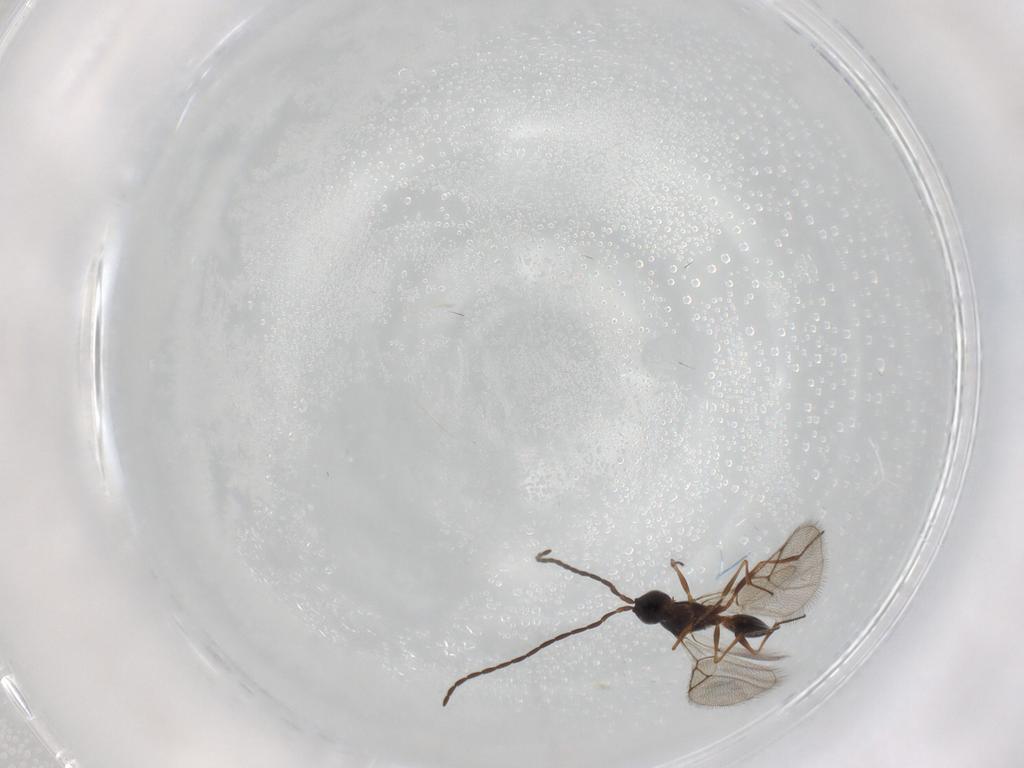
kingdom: Animalia
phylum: Arthropoda
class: Insecta
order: Hymenoptera
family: Figitidae
